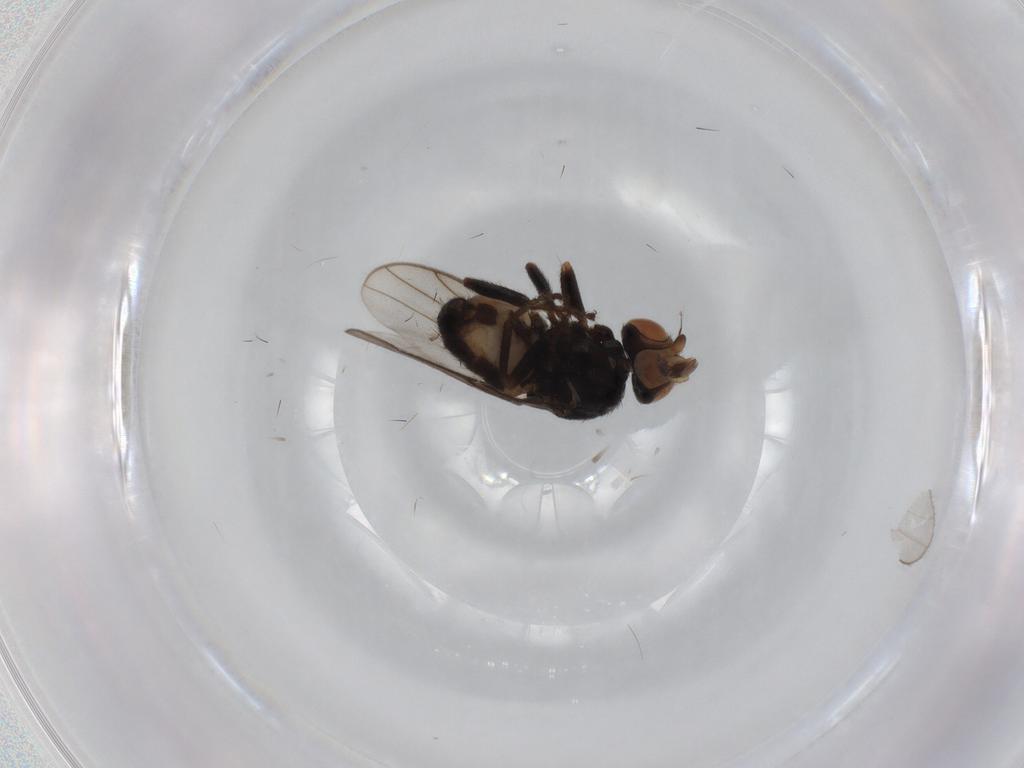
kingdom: Animalia
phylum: Arthropoda
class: Insecta
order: Diptera
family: Chloropidae
